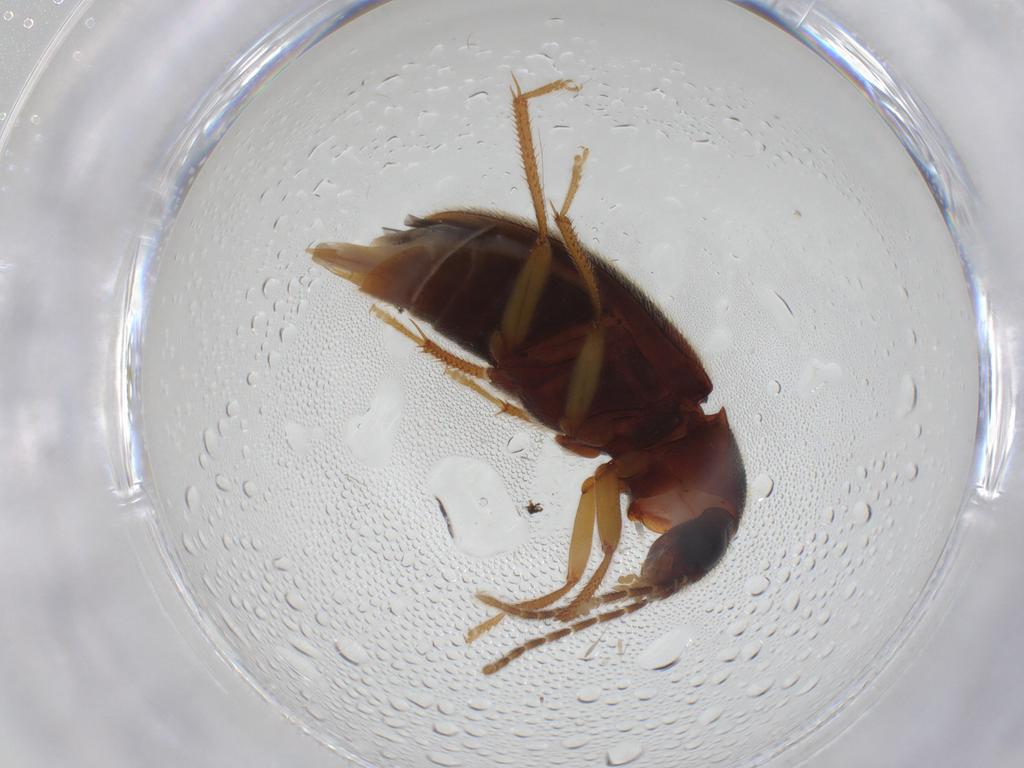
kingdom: Animalia
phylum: Arthropoda
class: Insecta
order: Coleoptera
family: Ptilodactylidae
